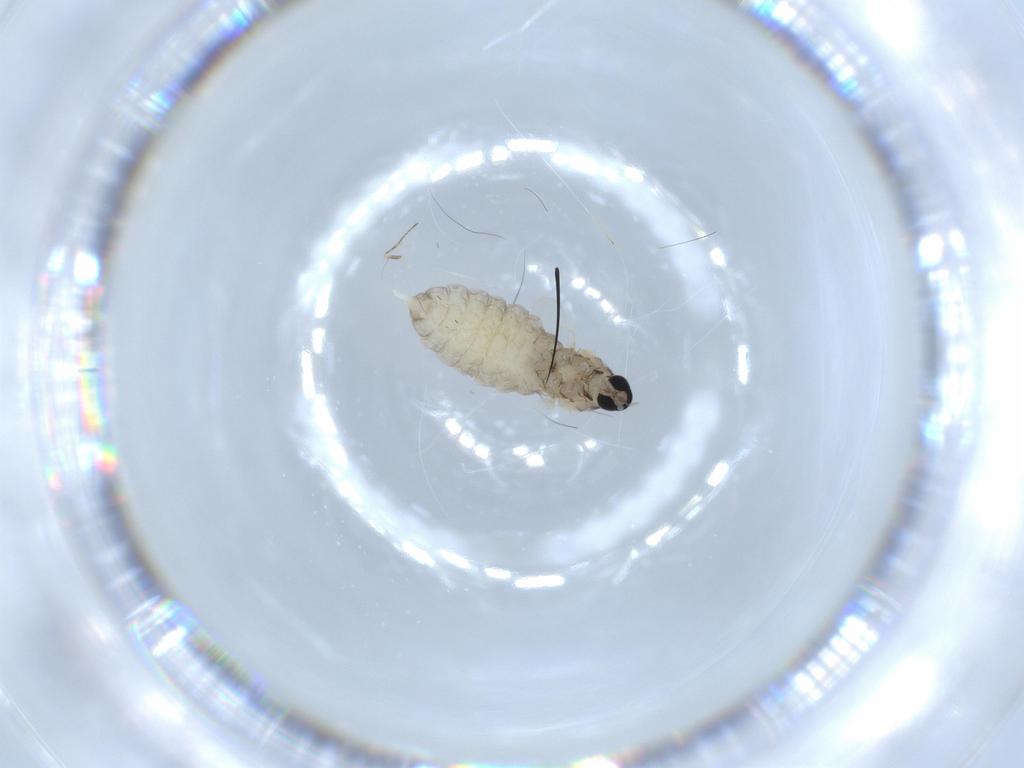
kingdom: Animalia
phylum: Arthropoda
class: Insecta
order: Diptera
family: Cecidomyiidae
